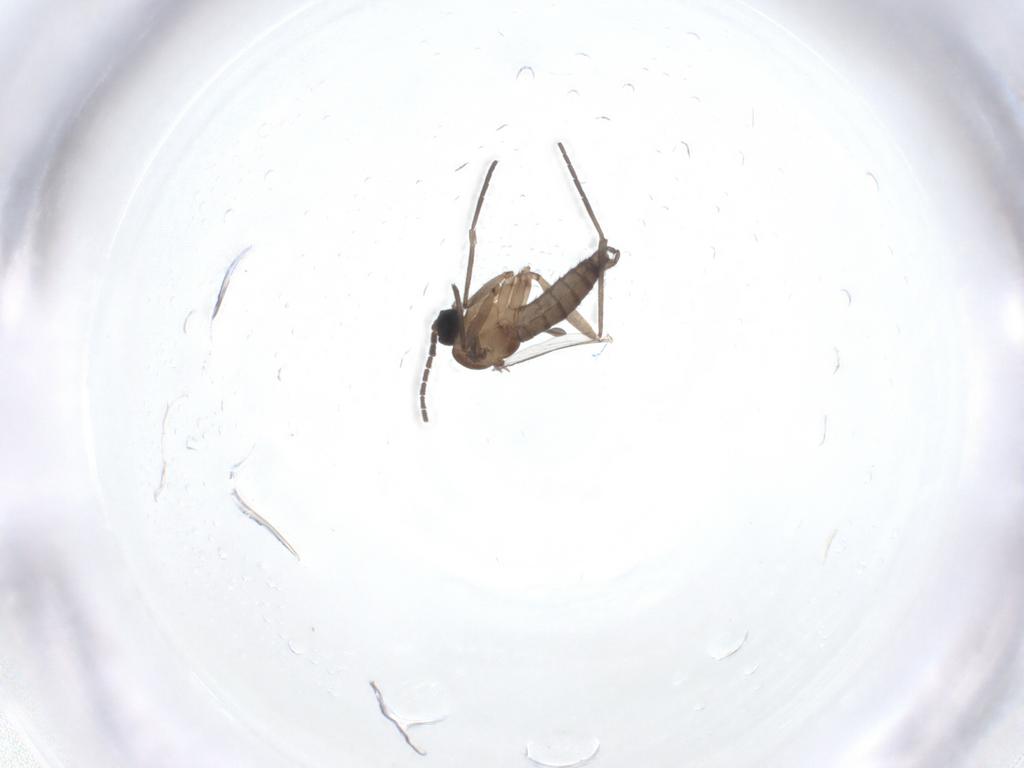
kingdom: Animalia
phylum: Arthropoda
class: Insecta
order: Diptera
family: Sciaridae
